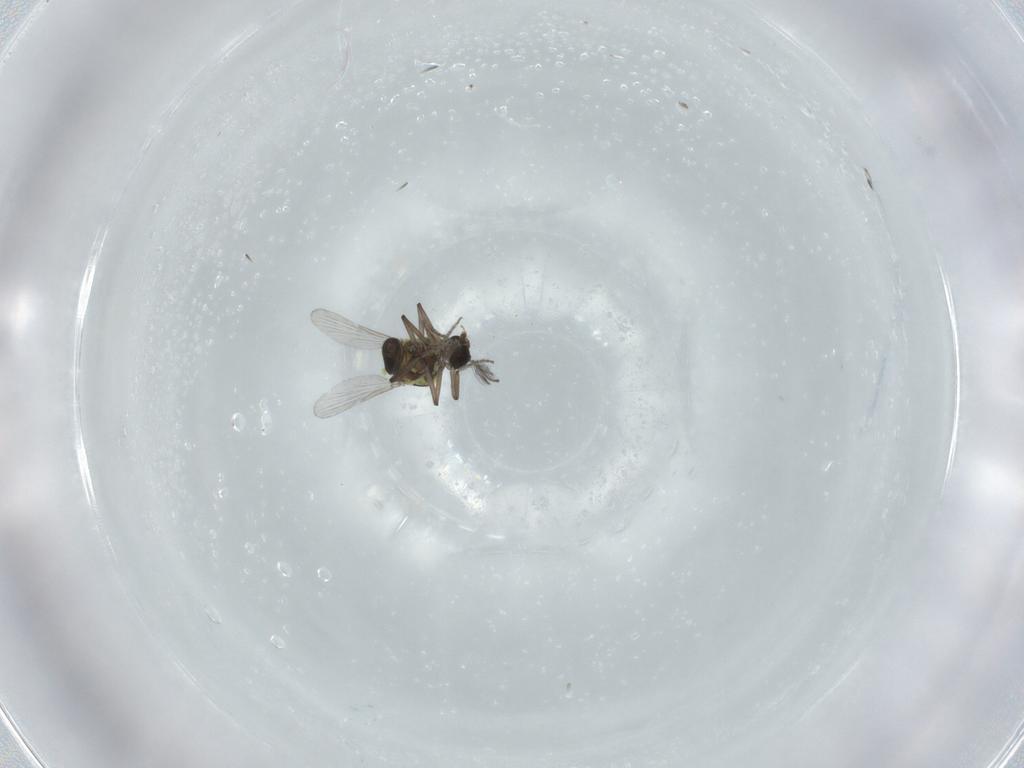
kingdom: Animalia
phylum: Arthropoda
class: Insecta
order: Diptera
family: Ceratopogonidae
